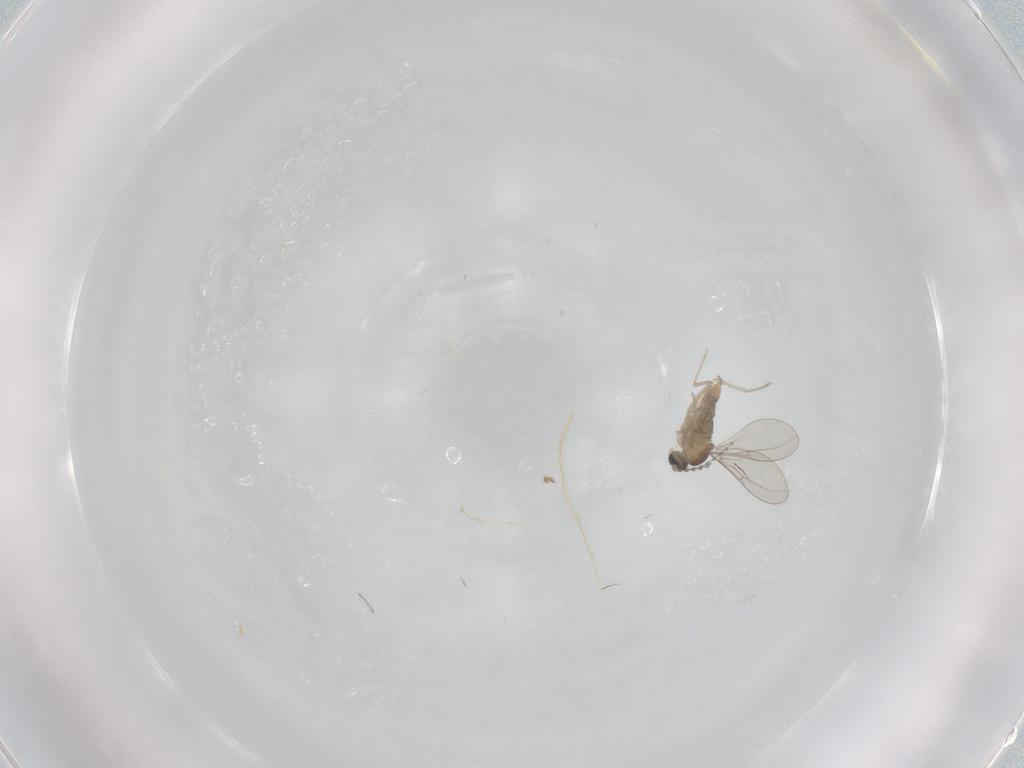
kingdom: Animalia
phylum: Arthropoda
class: Insecta
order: Diptera
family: Cecidomyiidae
